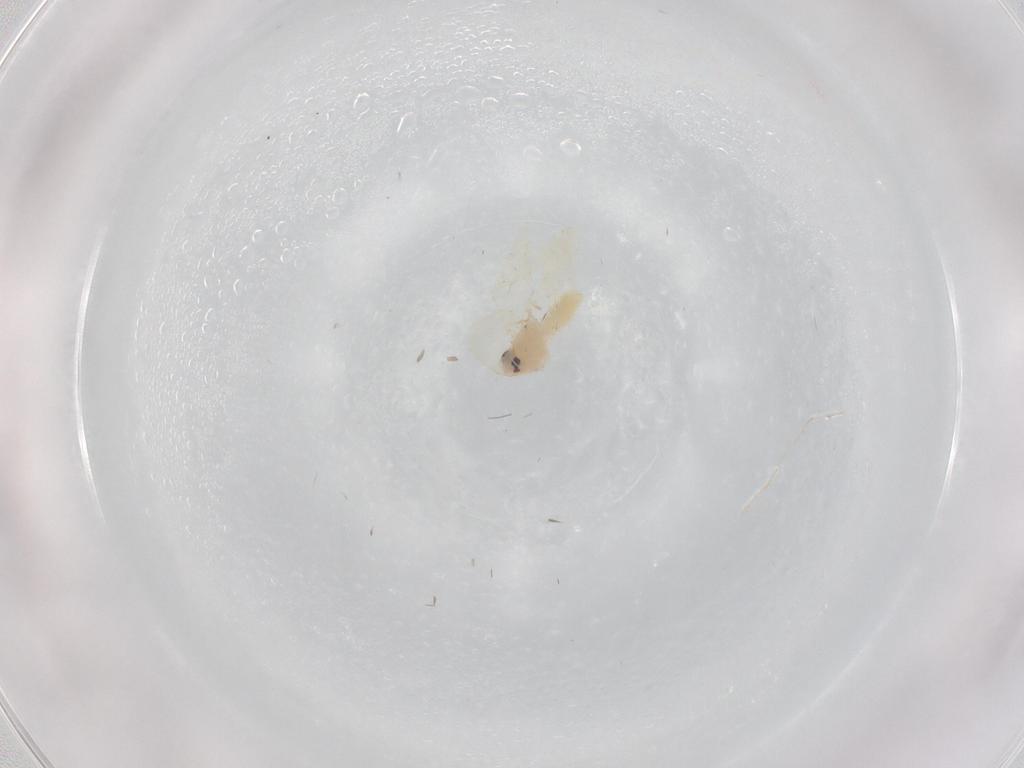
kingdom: Animalia
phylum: Arthropoda
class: Insecta
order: Hemiptera
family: Aleyrodidae
